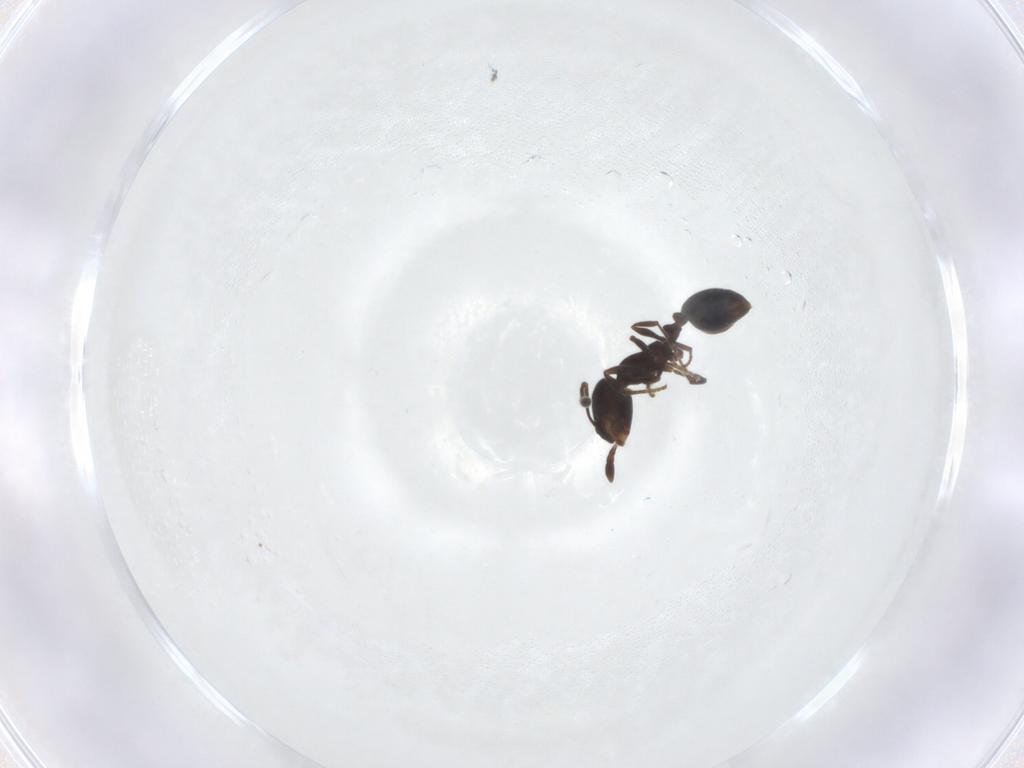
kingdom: Animalia
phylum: Arthropoda
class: Insecta
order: Hymenoptera
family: Formicidae
